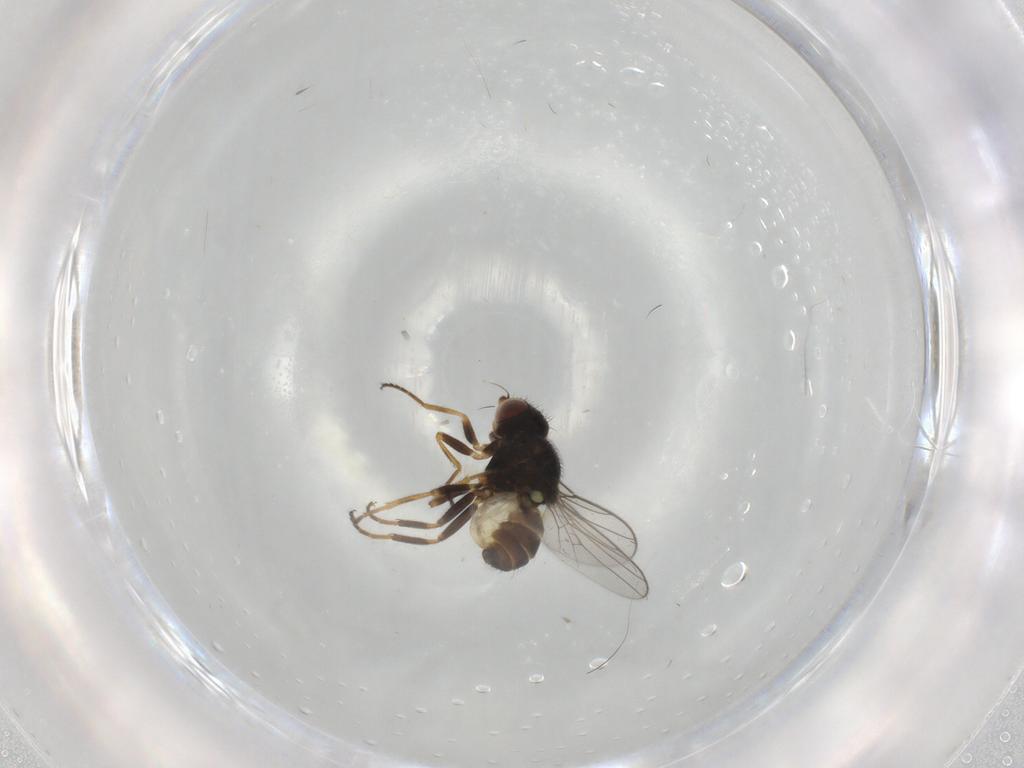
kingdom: Animalia
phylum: Arthropoda
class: Insecta
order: Diptera
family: Chloropidae
